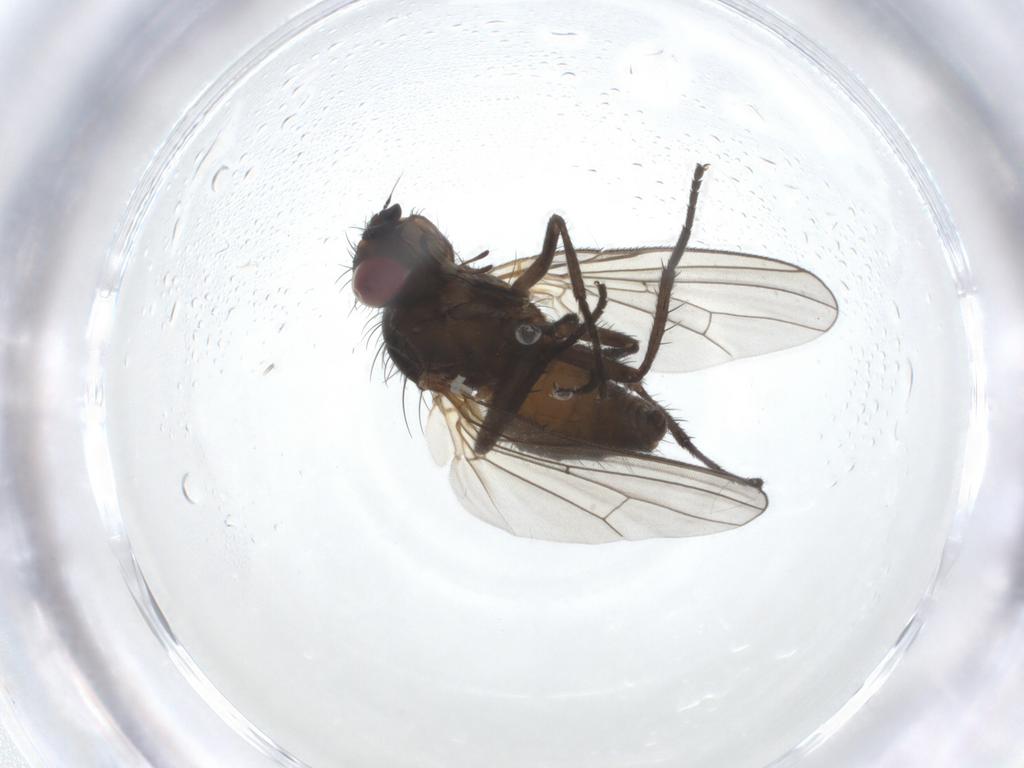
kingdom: Animalia
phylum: Arthropoda
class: Insecta
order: Diptera
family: Anthomyiidae
